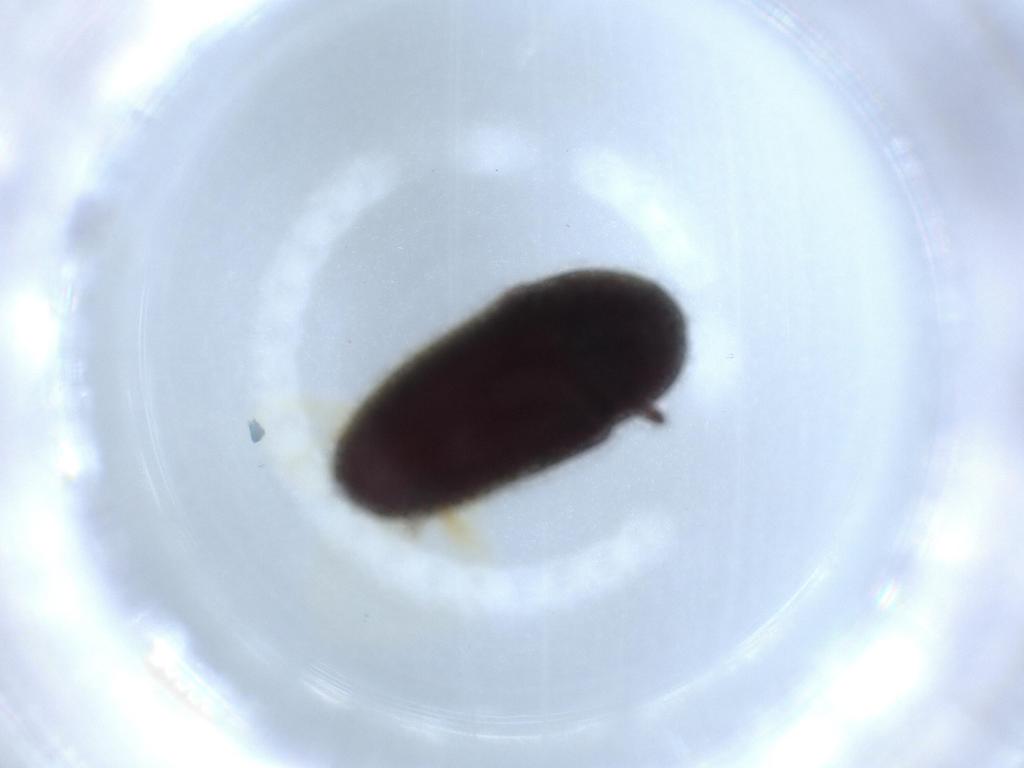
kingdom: Animalia
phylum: Arthropoda
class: Insecta
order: Coleoptera
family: Throscidae
